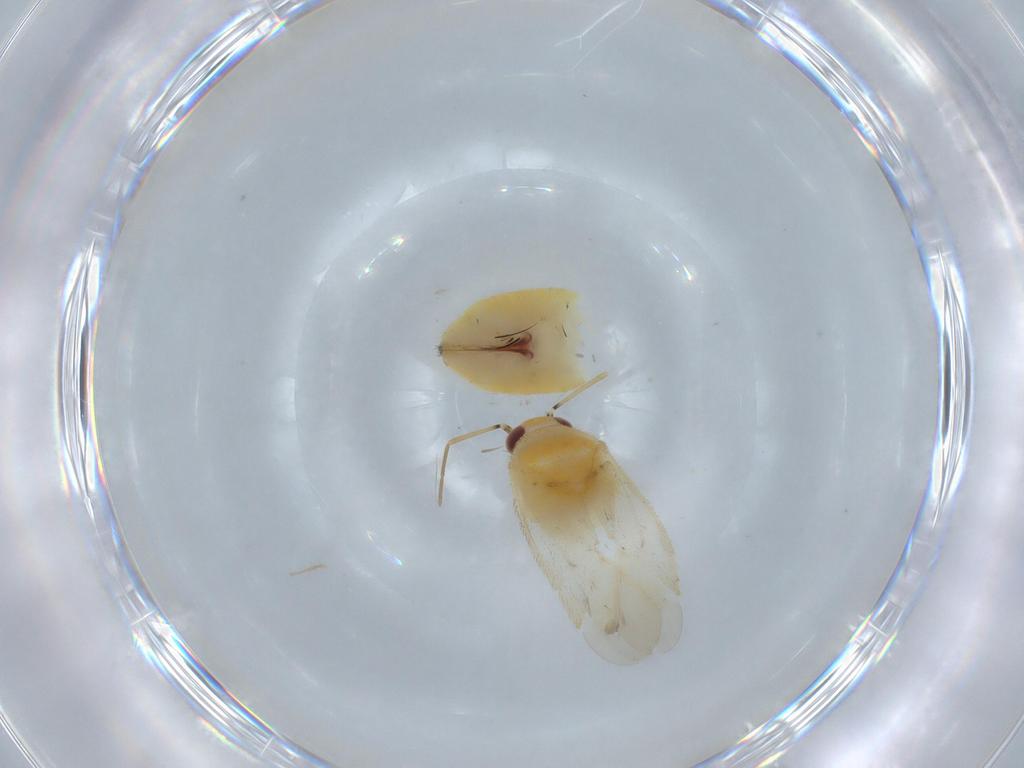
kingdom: Animalia
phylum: Arthropoda
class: Insecta
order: Hemiptera
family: Miridae
